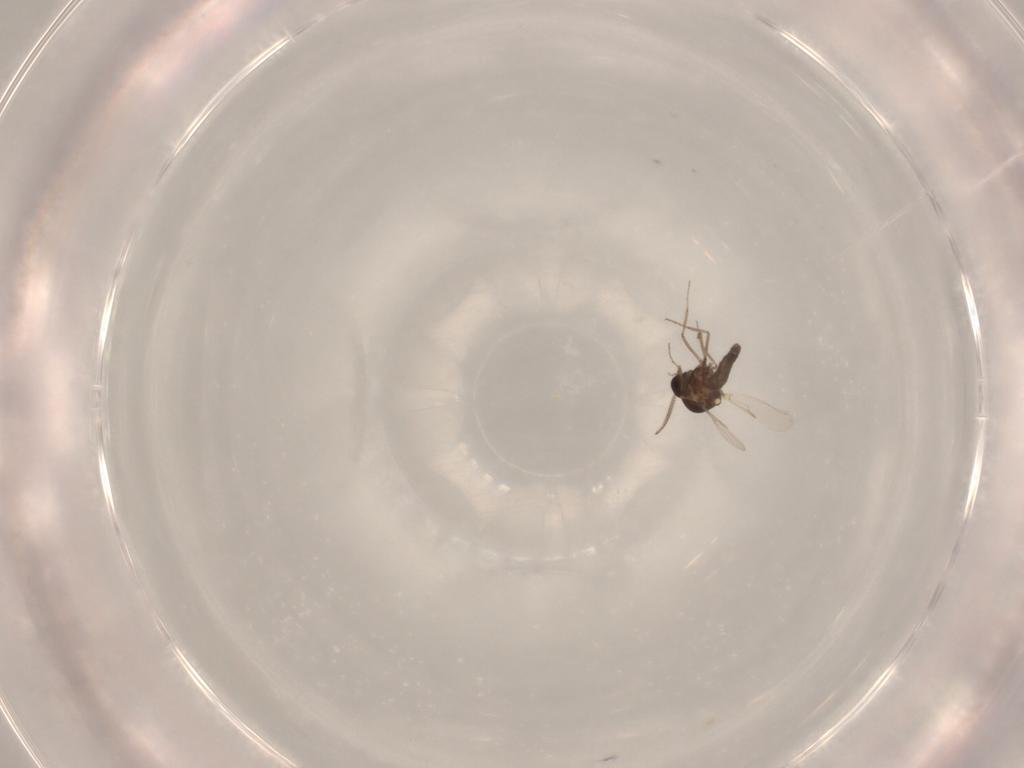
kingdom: Animalia
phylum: Arthropoda
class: Insecta
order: Diptera
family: Ceratopogonidae
